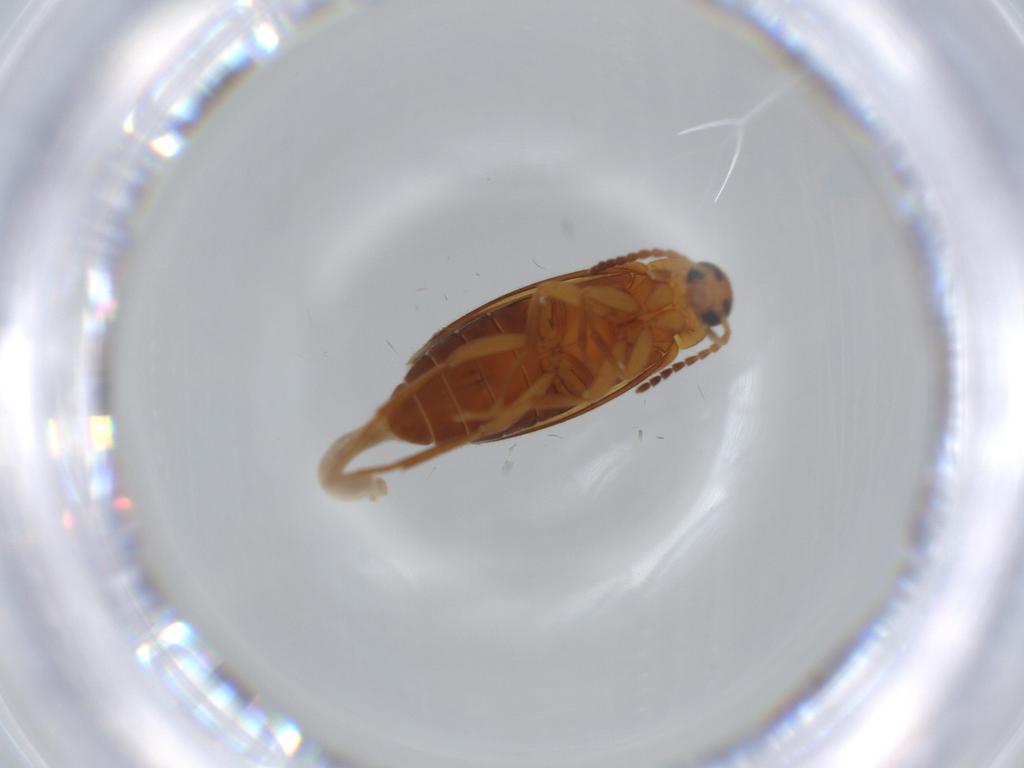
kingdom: Animalia
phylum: Arthropoda
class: Insecta
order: Coleoptera
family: Scraptiidae
